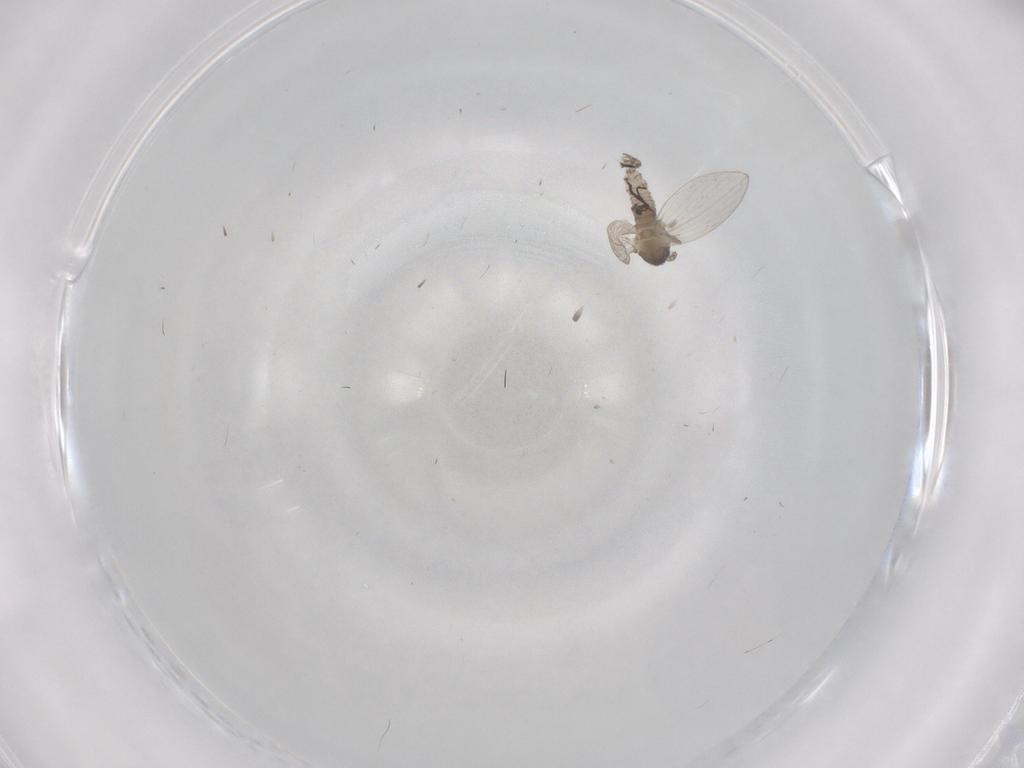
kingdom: Animalia
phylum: Arthropoda
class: Insecta
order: Diptera
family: Psychodidae
